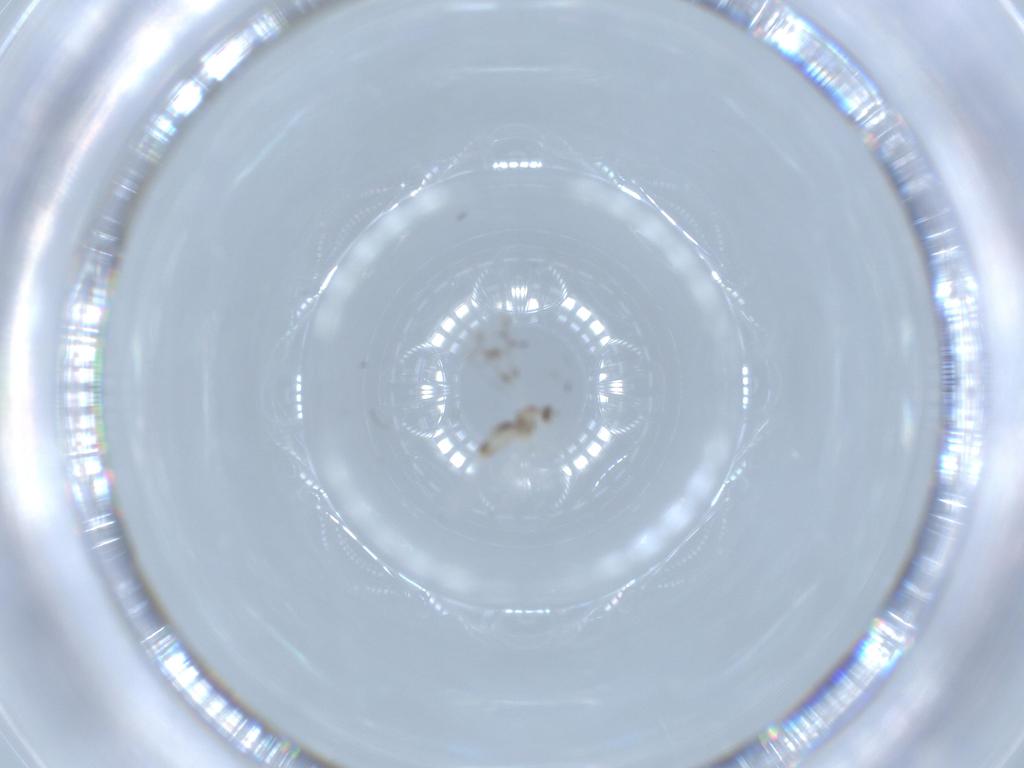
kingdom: Animalia
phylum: Arthropoda
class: Insecta
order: Diptera
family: Cecidomyiidae
